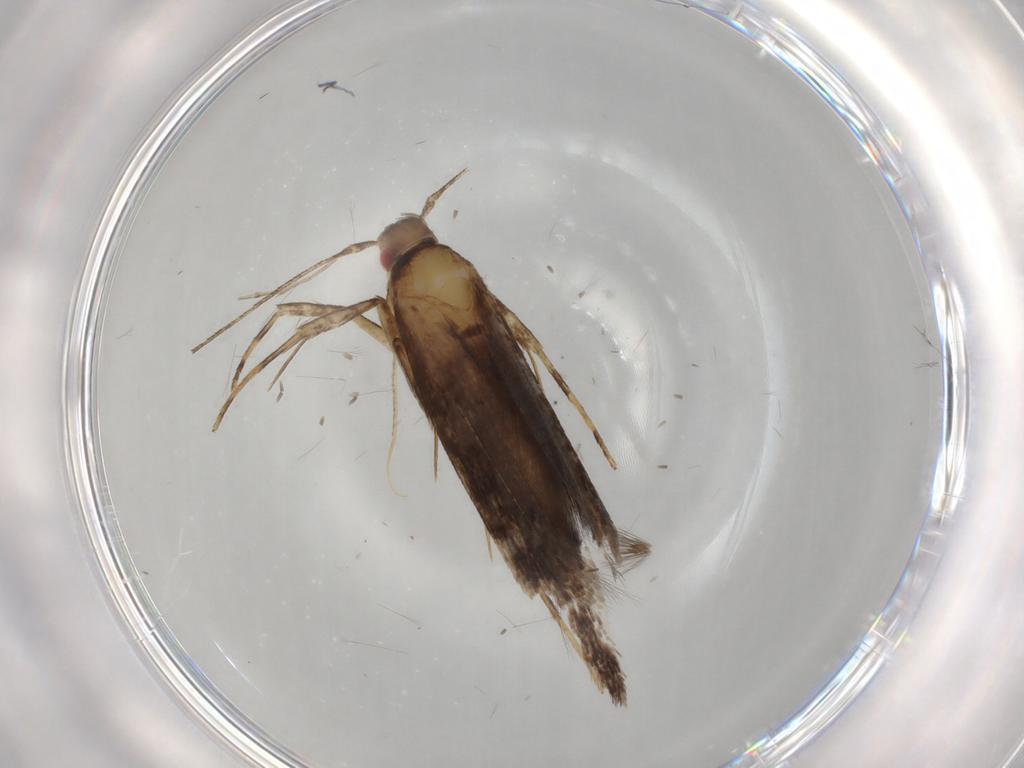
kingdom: Animalia
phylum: Arthropoda
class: Insecta
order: Lepidoptera
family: Cosmopterigidae
